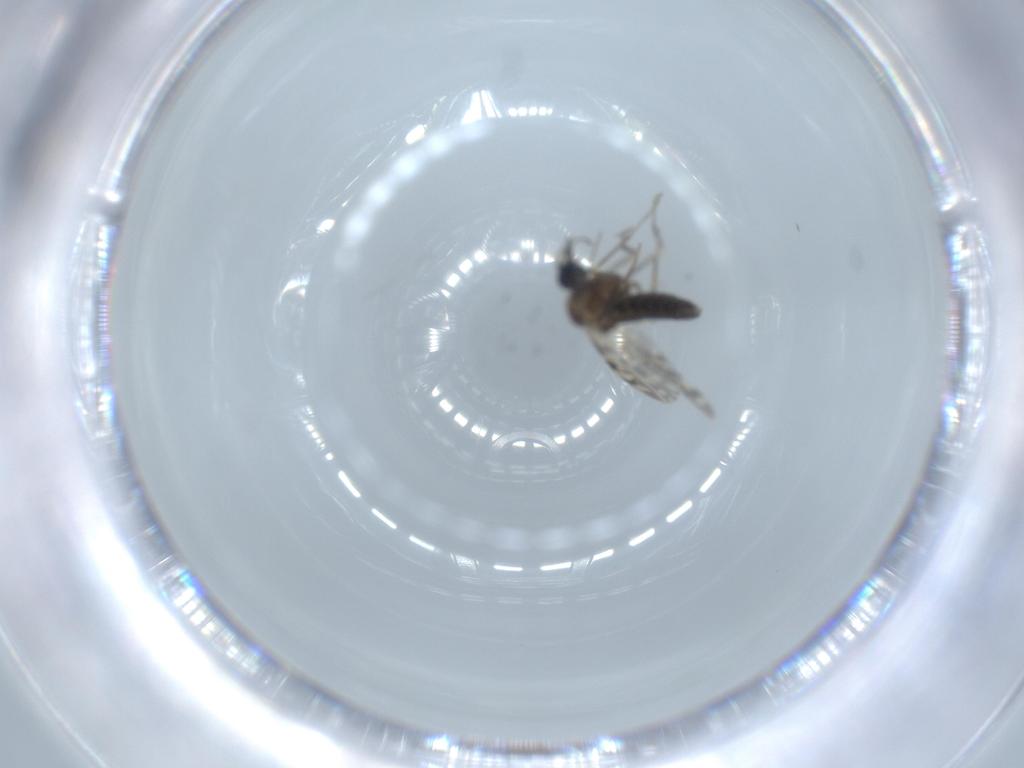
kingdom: Animalia
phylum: Arthropoda
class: Insecta
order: Diptera
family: Ceratopogonidae
